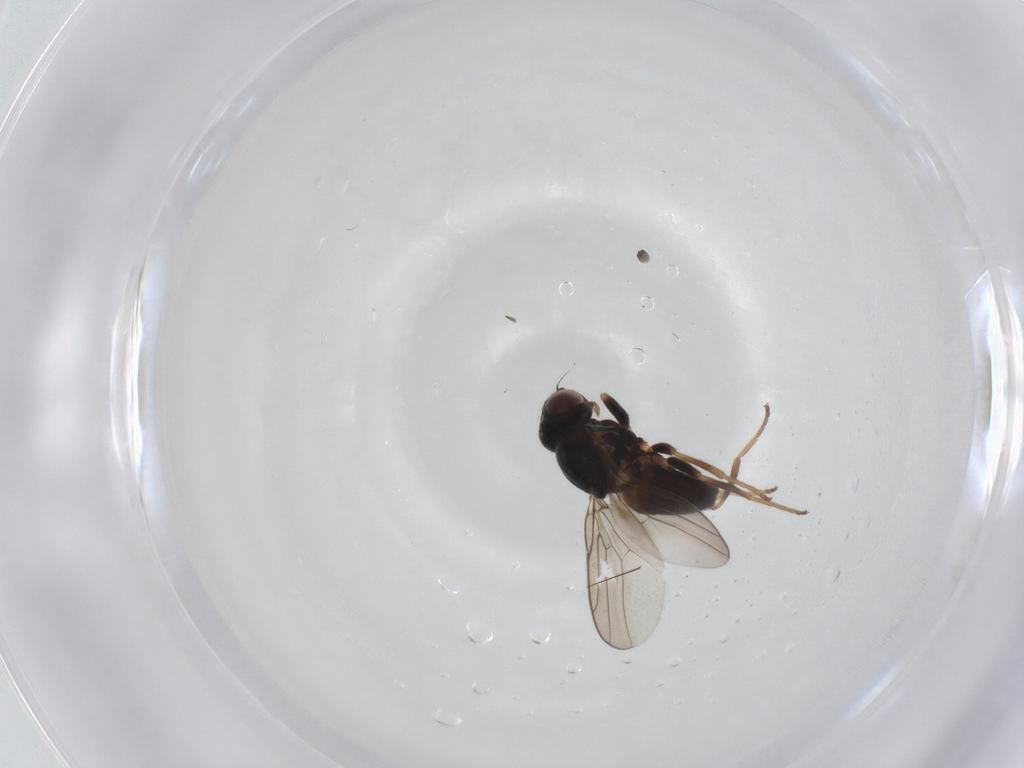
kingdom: Animalia
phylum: Arthropoda
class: Insecta
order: Diptera
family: Chloropidae
